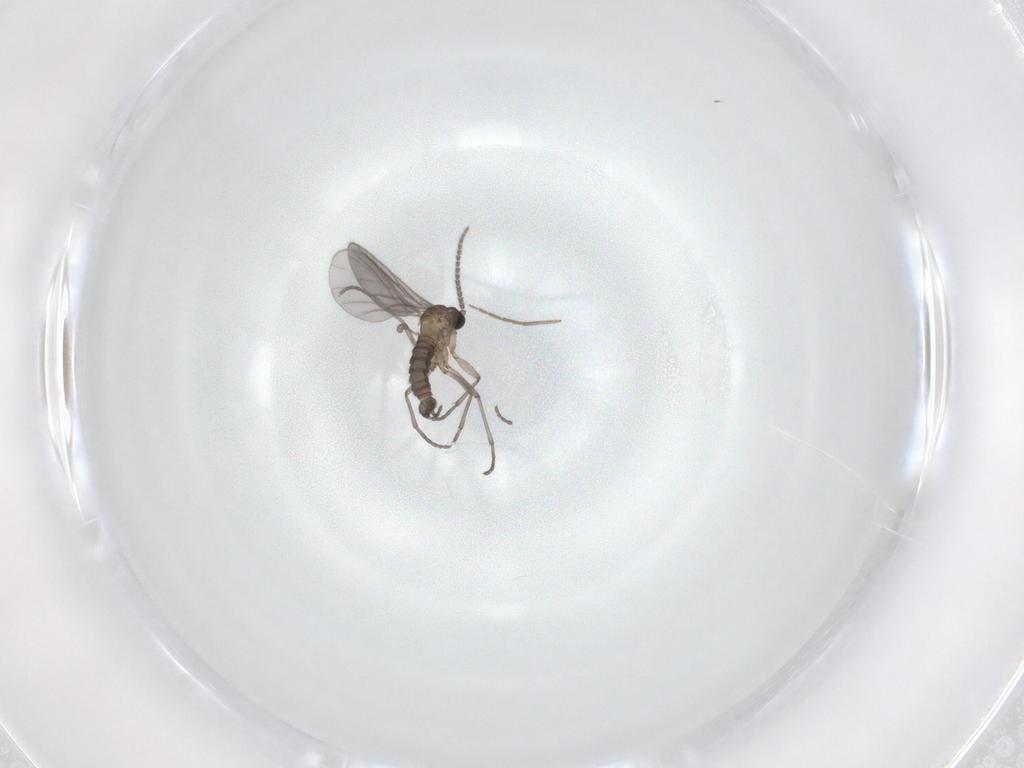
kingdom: Animalia
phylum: Arthropoda
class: Insecta
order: Diptera
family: Sciaridae
